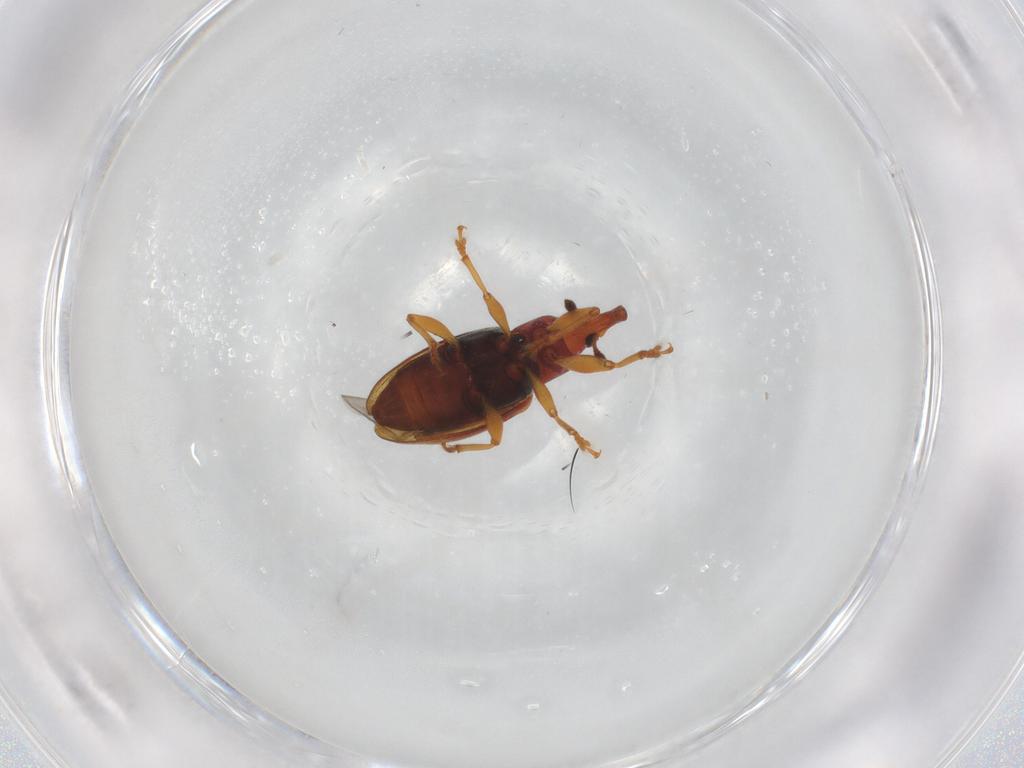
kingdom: Animalia
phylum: Arthropoda
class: Insecta
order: Coleoptera
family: Curculionidae
